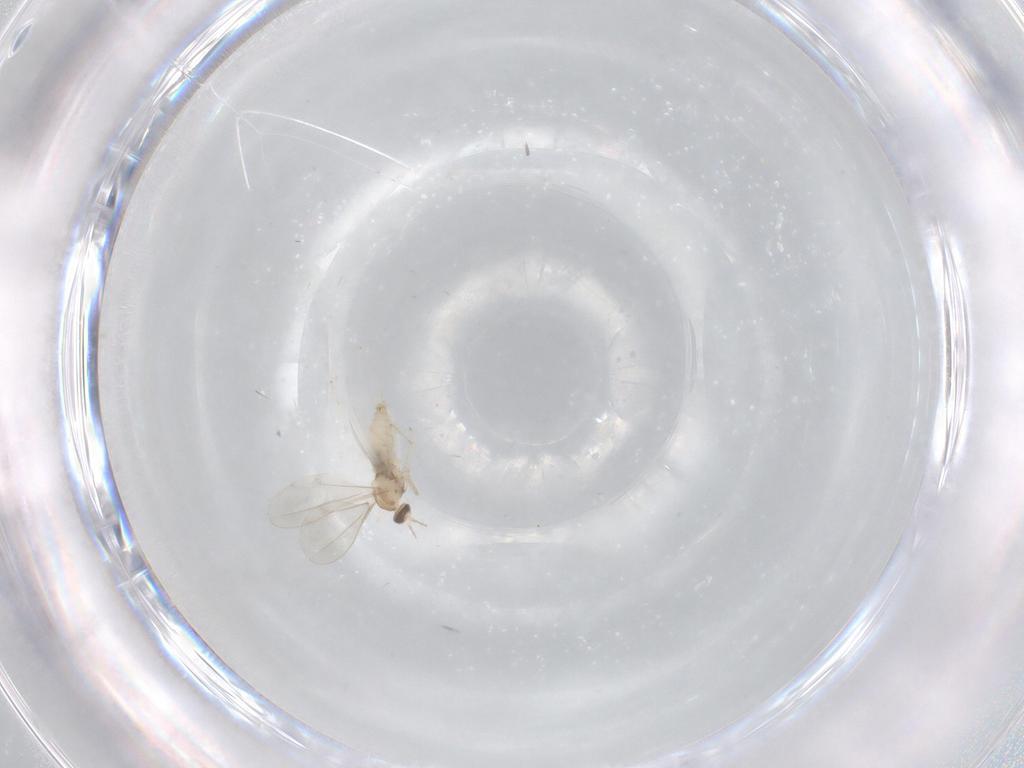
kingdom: Animalia
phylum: Arthropoda
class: Insecta
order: Diptera
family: Cecidomyiidae
